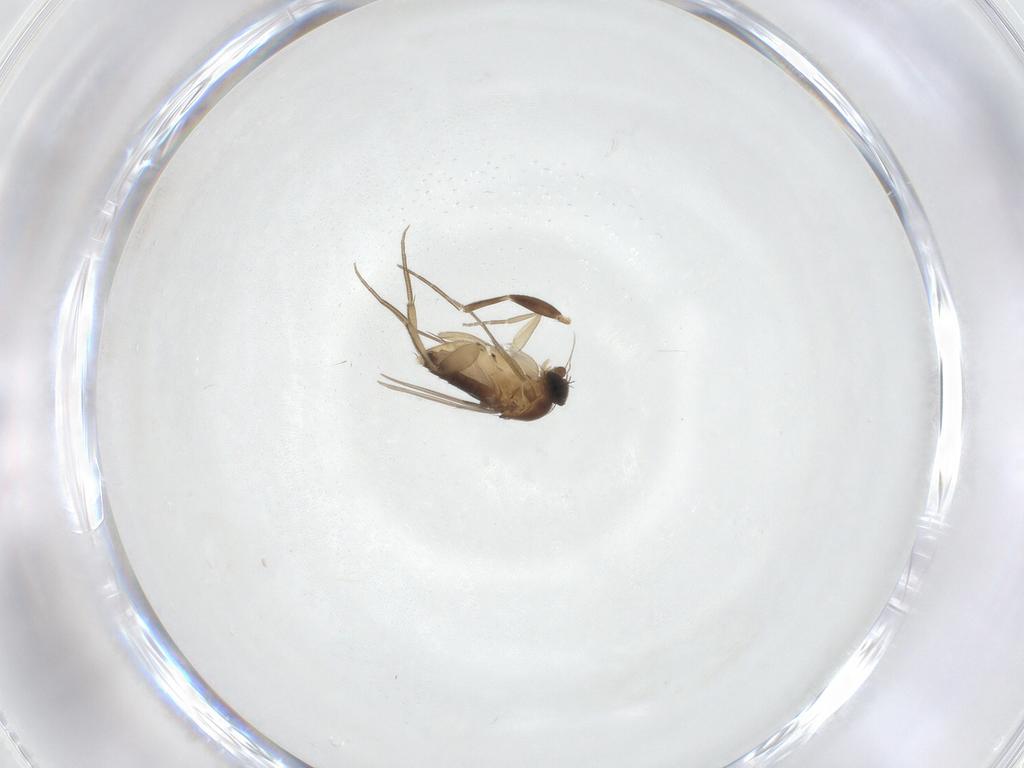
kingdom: Animalia
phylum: Arthropoda
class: Insecta
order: Diptera
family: Phoridae
